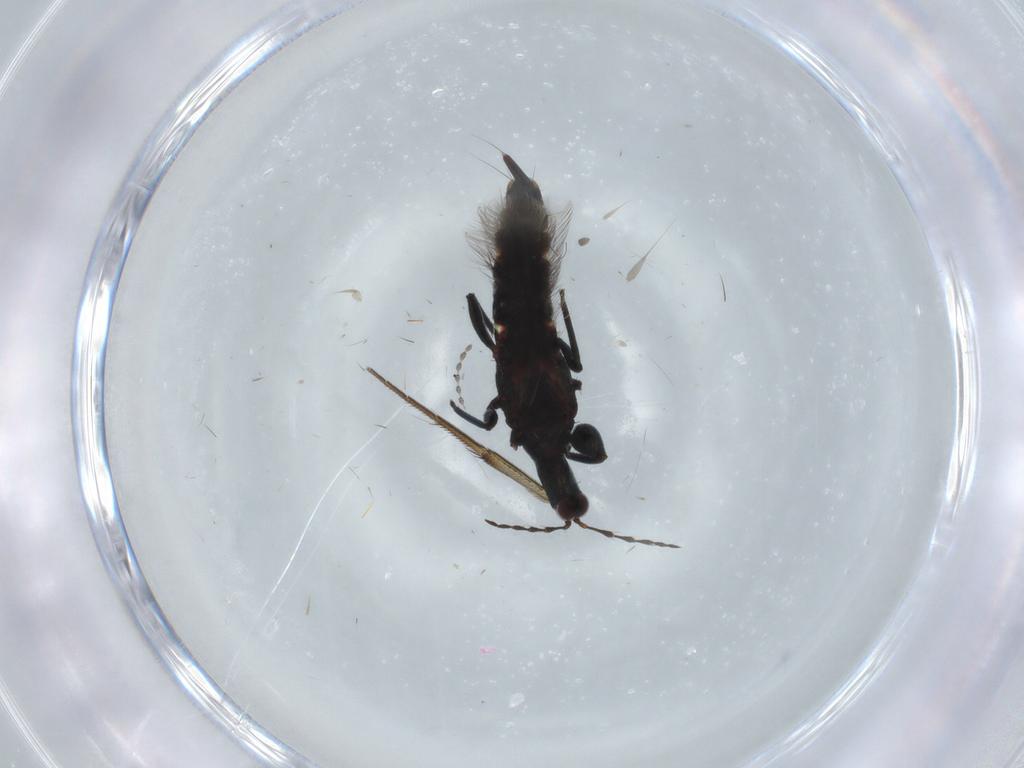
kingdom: Animalia
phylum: Arthropoda
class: Insecta
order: Thysanoptera
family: Phlaeothripidae
